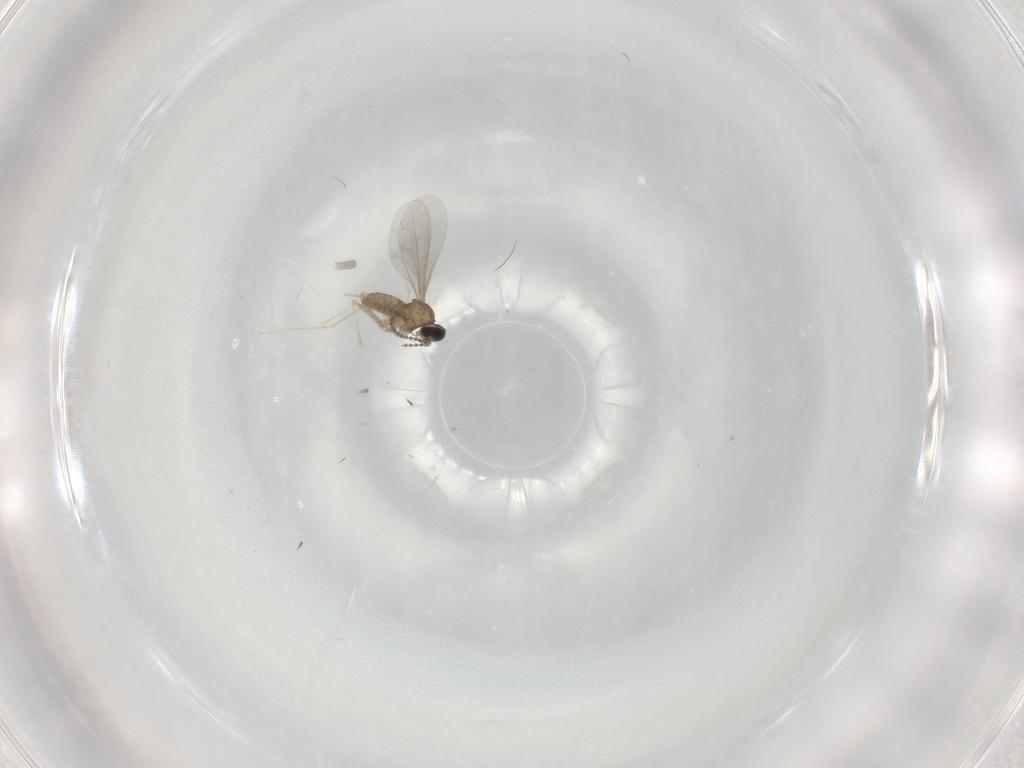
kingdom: Animalia
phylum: Arthropoda
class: Insecta
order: Diptera
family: Cecidomyiidae
